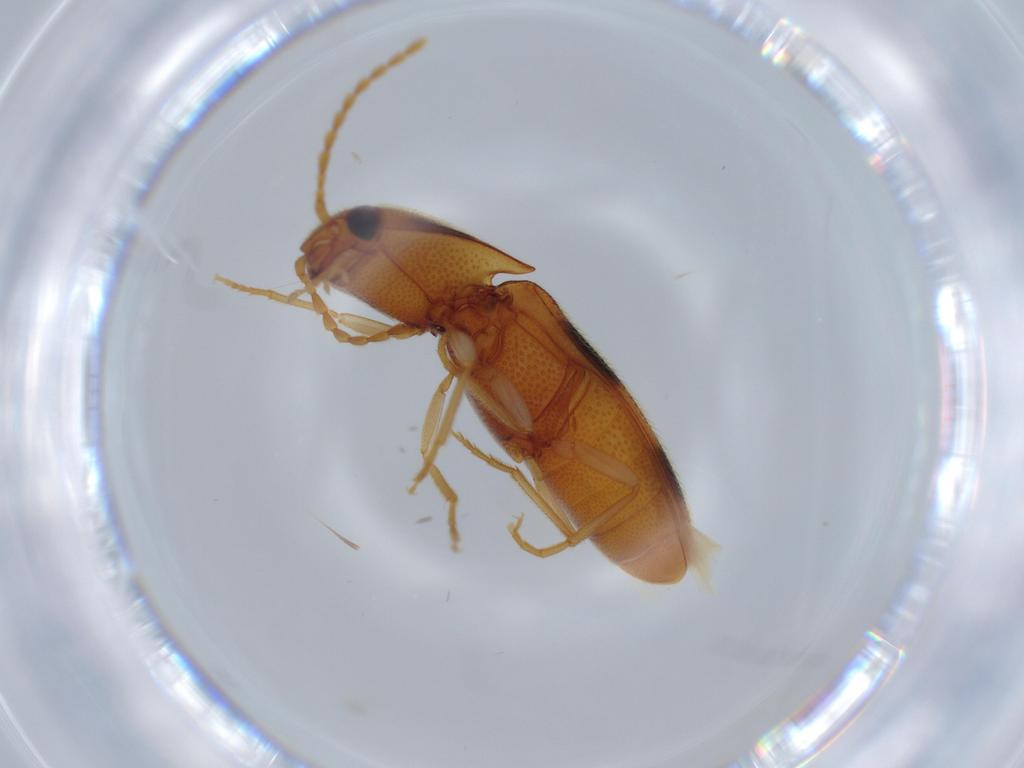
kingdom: Animalia
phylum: Arthropoda
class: Insecta
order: Coleoptera
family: Elateridae
